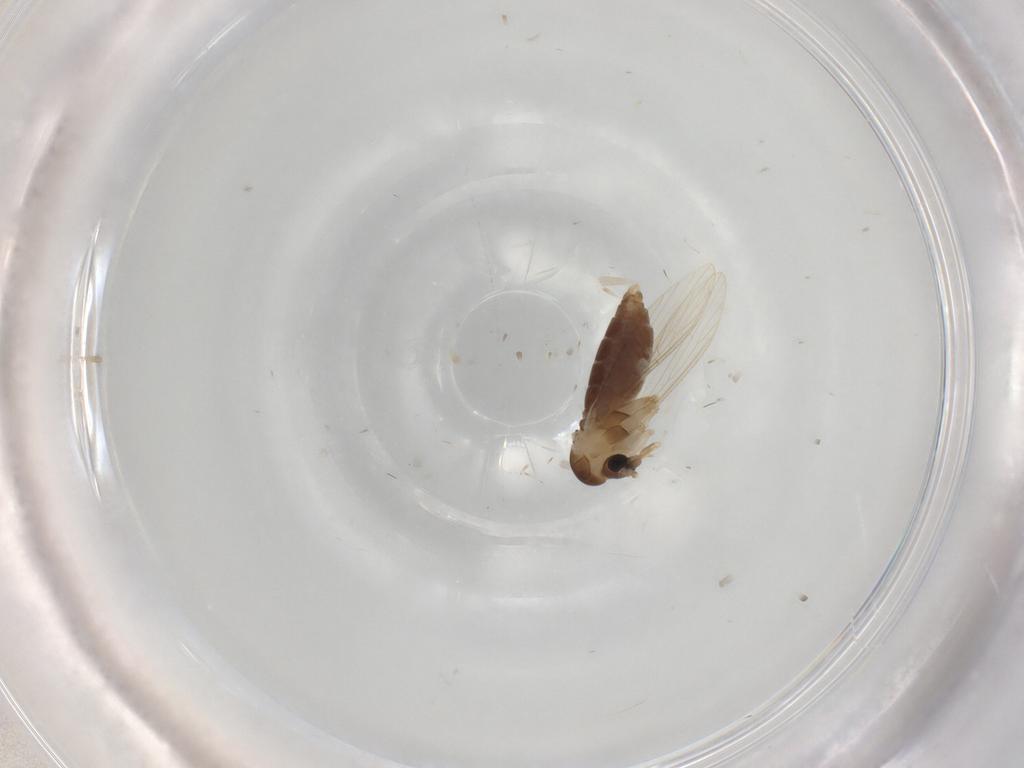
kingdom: Animalia
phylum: Arthropoda
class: Insecta
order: Diptera
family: Psychodidae
